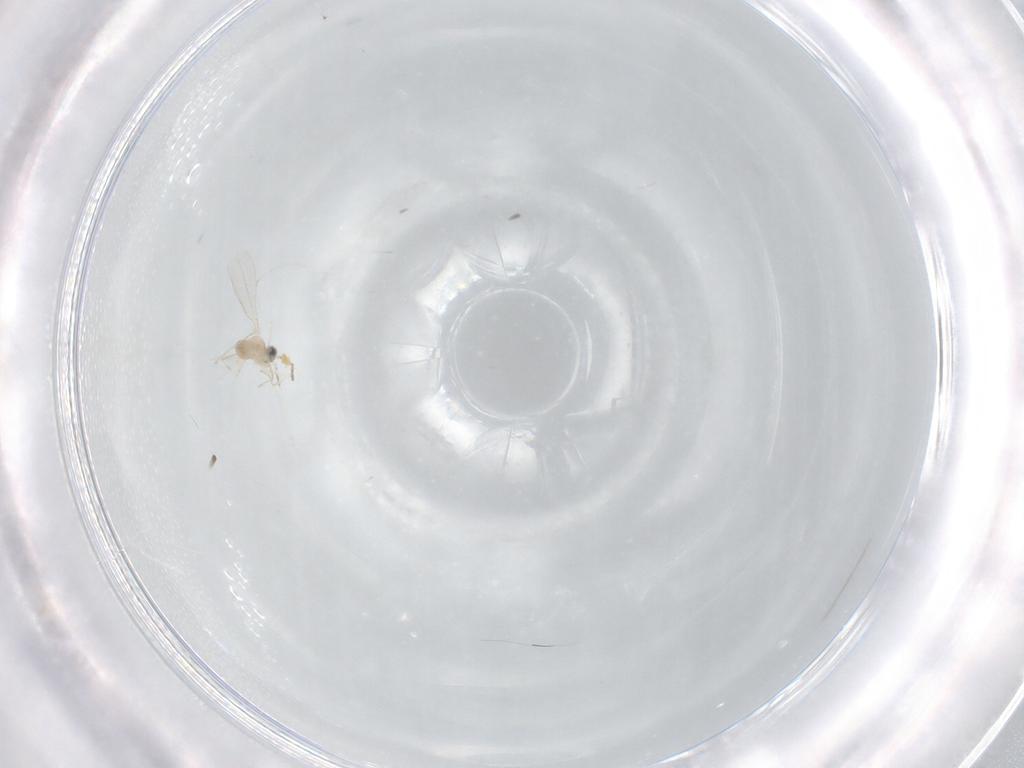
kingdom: Animalia
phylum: Arthropoda
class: Insecta
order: Diptera
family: Cecidomyiidae
